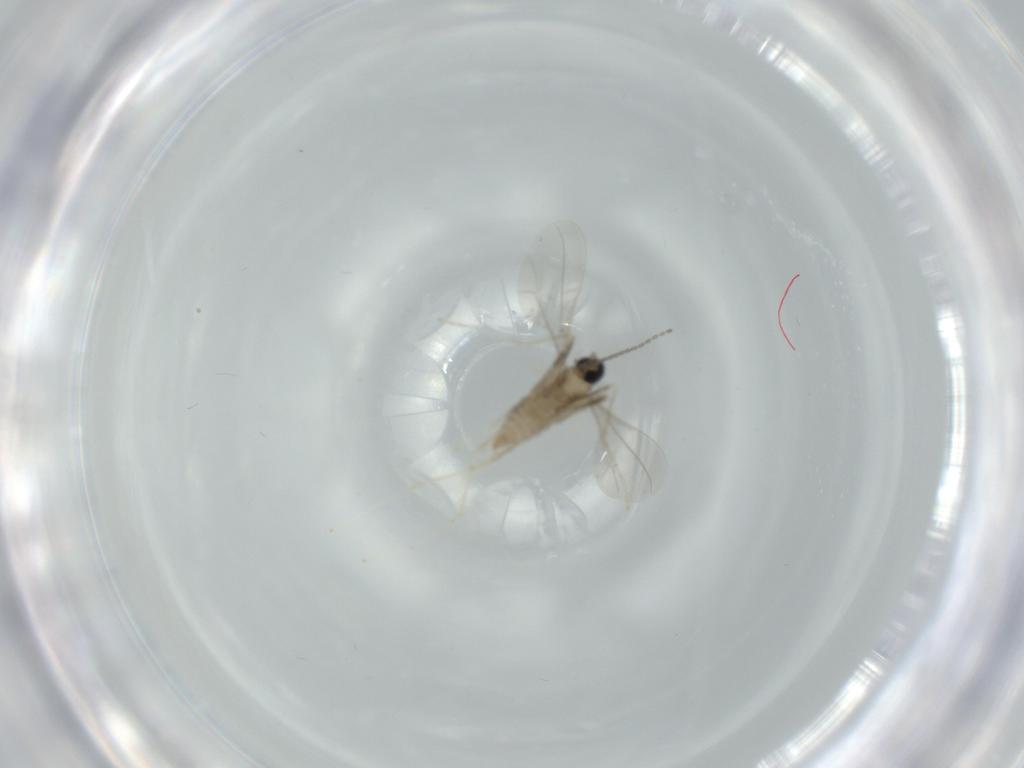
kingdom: Animalia
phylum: Arthropoda
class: Insecta
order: Diptera
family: Cecidomyiidae
